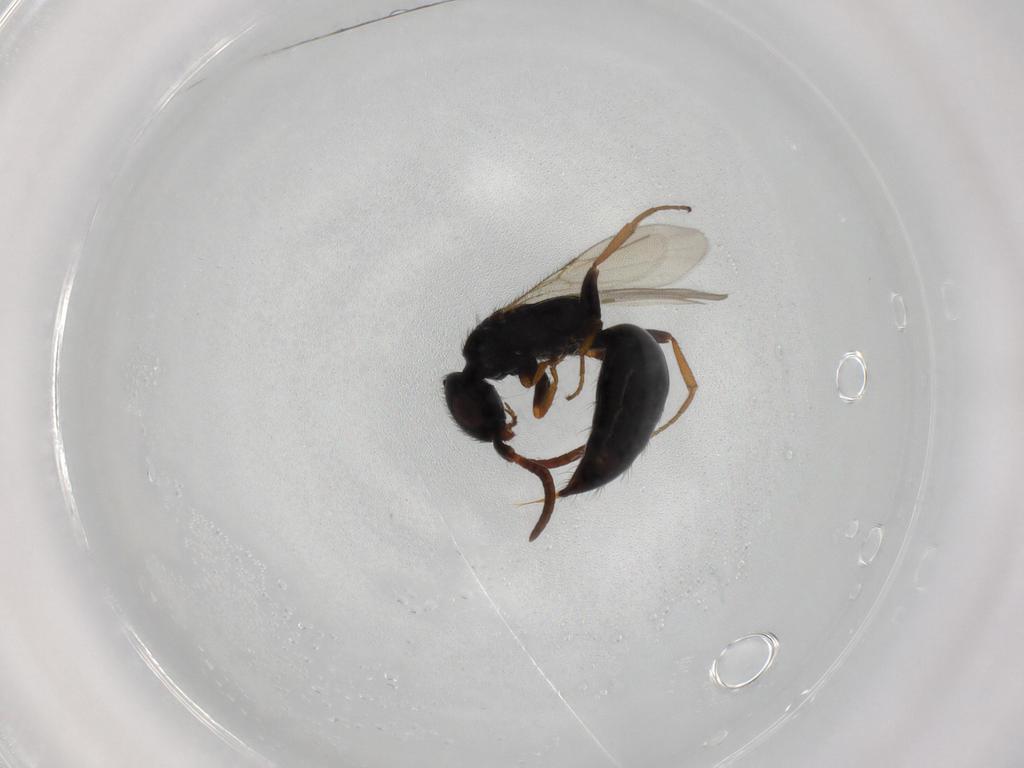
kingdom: Animalia
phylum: Arthropoda
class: Insecta
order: Hymenoptera
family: Bethylidae
